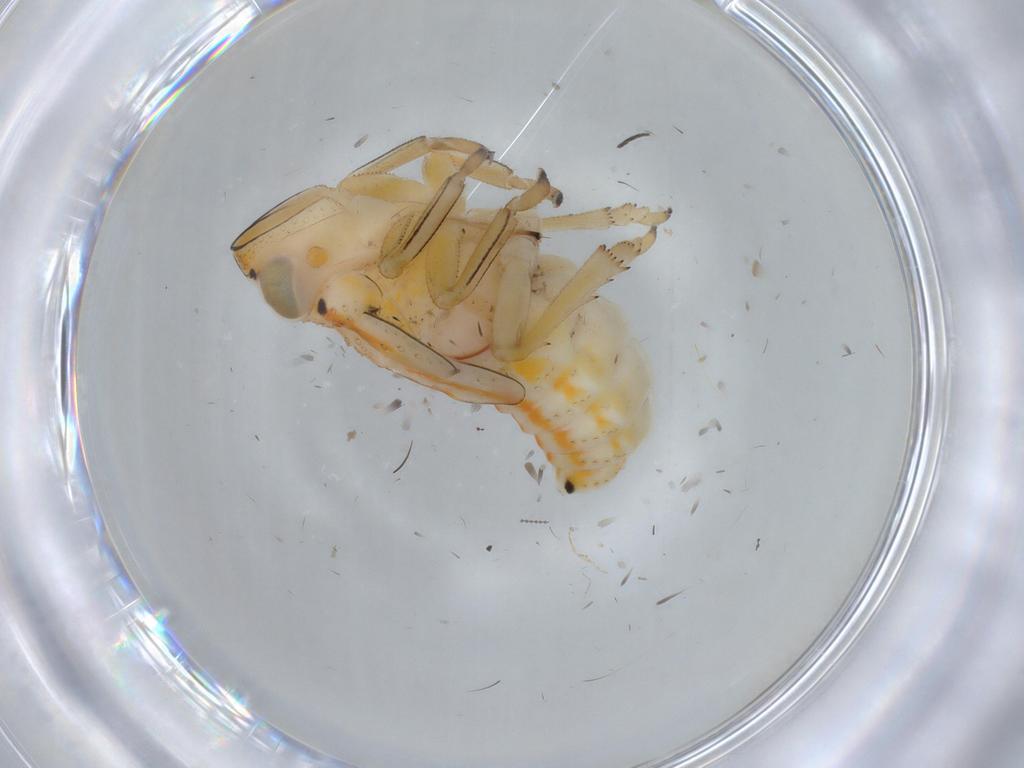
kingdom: Animalia
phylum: Arthropoda
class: Insecta
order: Hemiptera
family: Issidae
